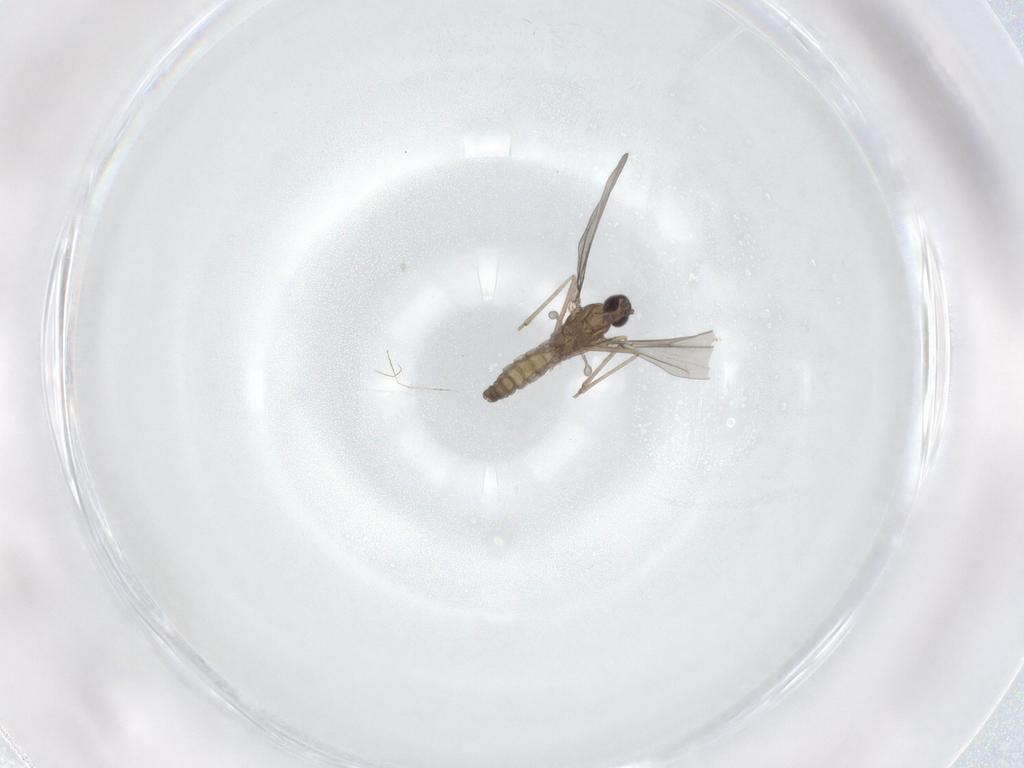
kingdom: Animalia
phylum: Arthropoda
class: Insecta
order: Diptera
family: Cecidomyiidae
